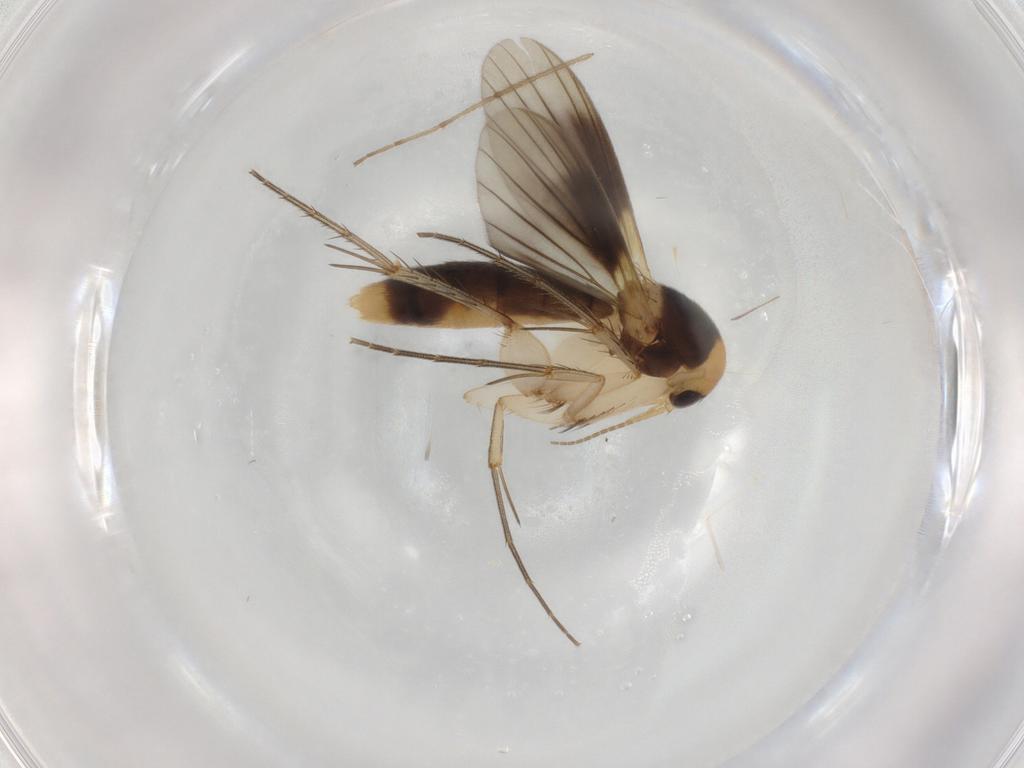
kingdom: Animalia
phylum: Arthropoda
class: Insecta
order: Diptera
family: Mycetophilidae
